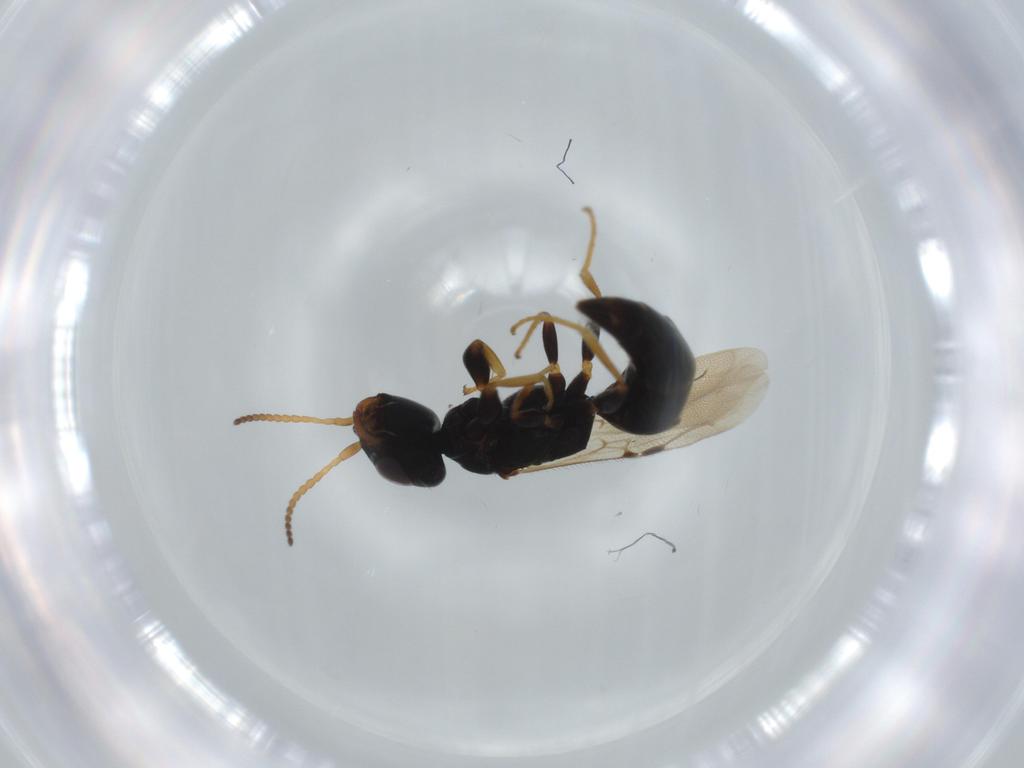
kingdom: Animalia
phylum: Arthropoda
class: Insecta
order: Hymenoptera
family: Bethylidae
